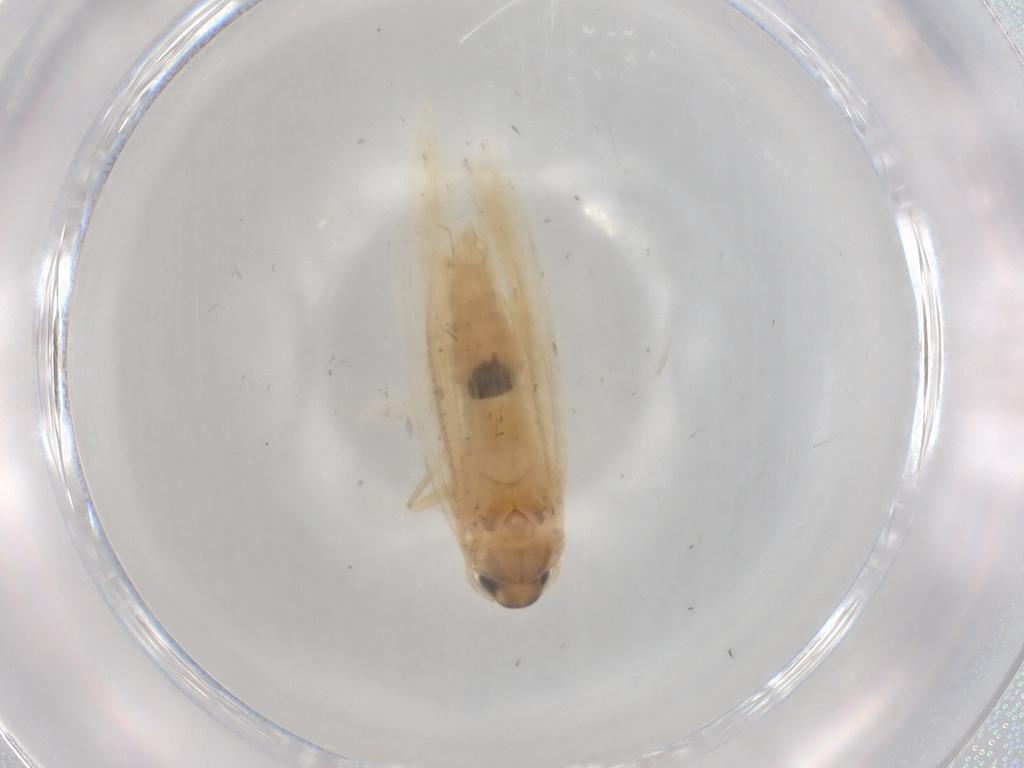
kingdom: Animalia
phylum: Arthropoda
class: Insecta
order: Lepidoptera
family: Gelechiidae
